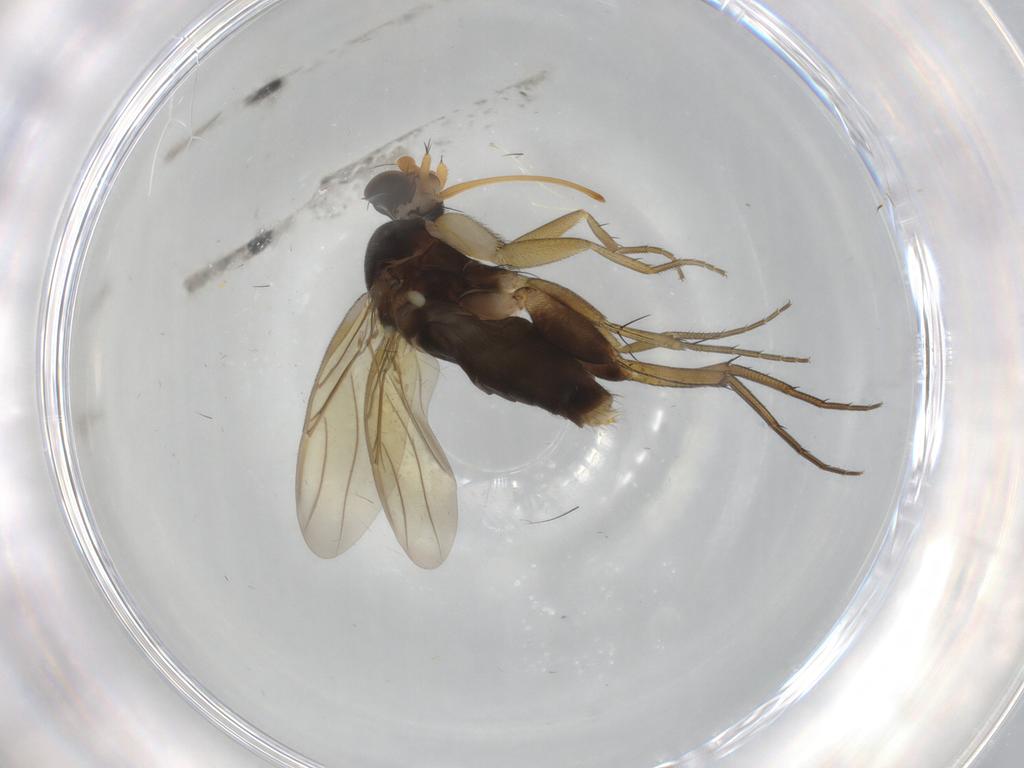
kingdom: Animalia
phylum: Arthropoda
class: Insecta
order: Diptera
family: Phoridae
